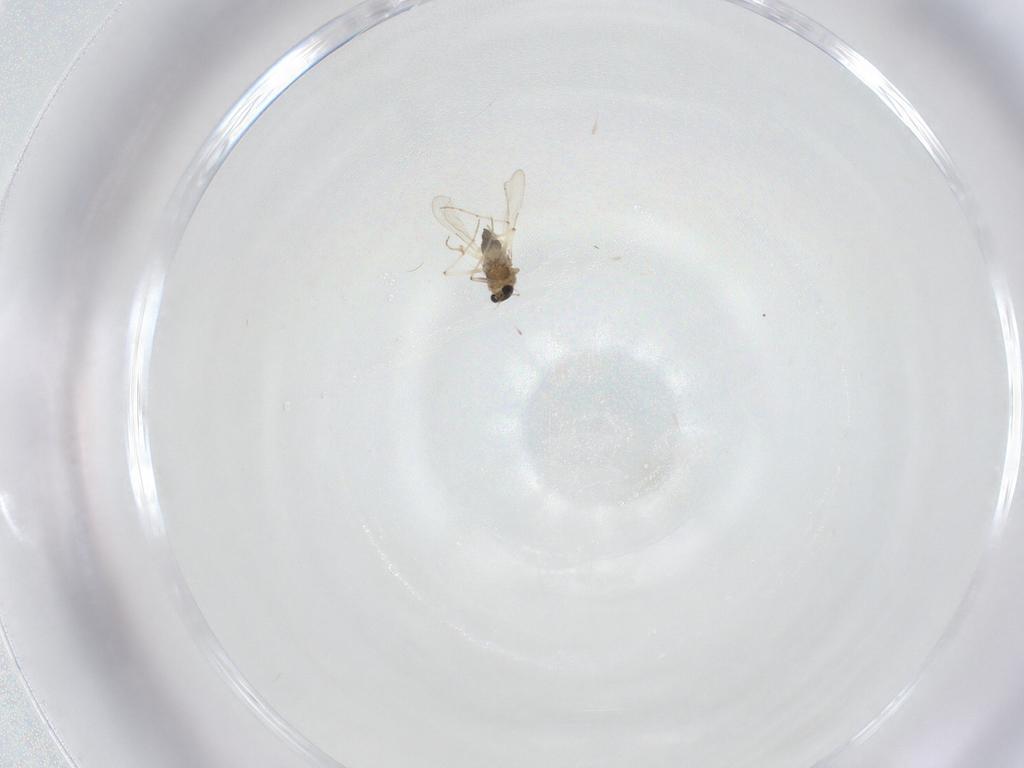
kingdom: Animalia
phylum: Arthropoda
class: Insecta
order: Diptera
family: Chironomidae
